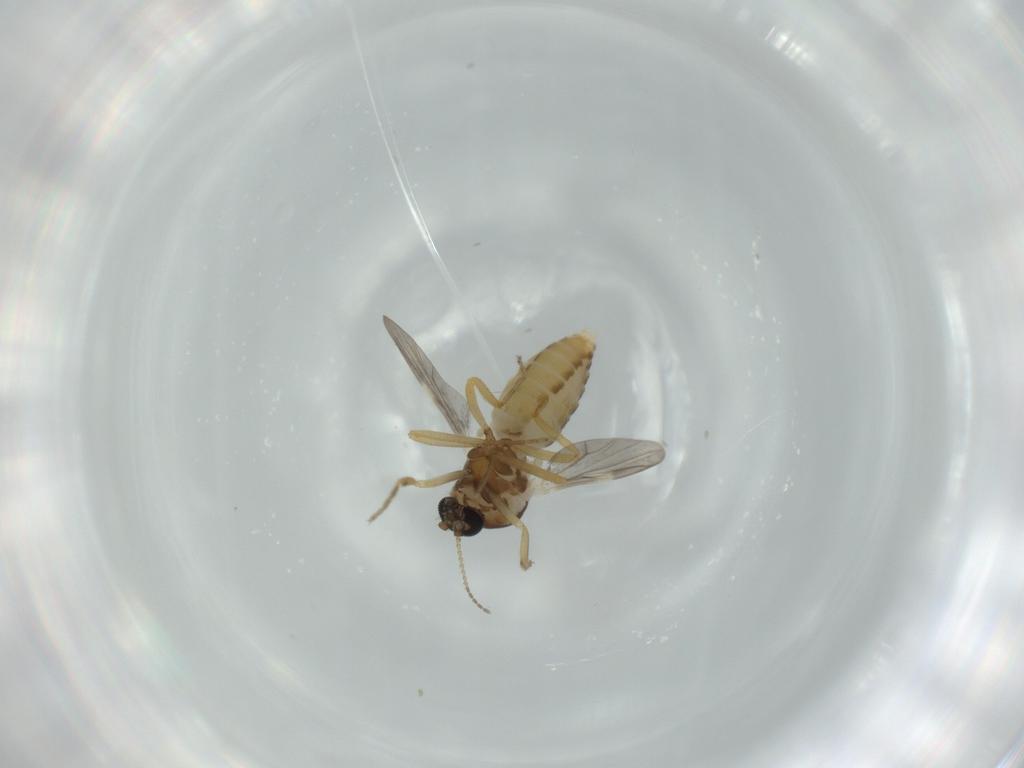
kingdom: Animalia
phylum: Arthropoda
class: Insecta
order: Diptera
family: Ceratopogonidae
